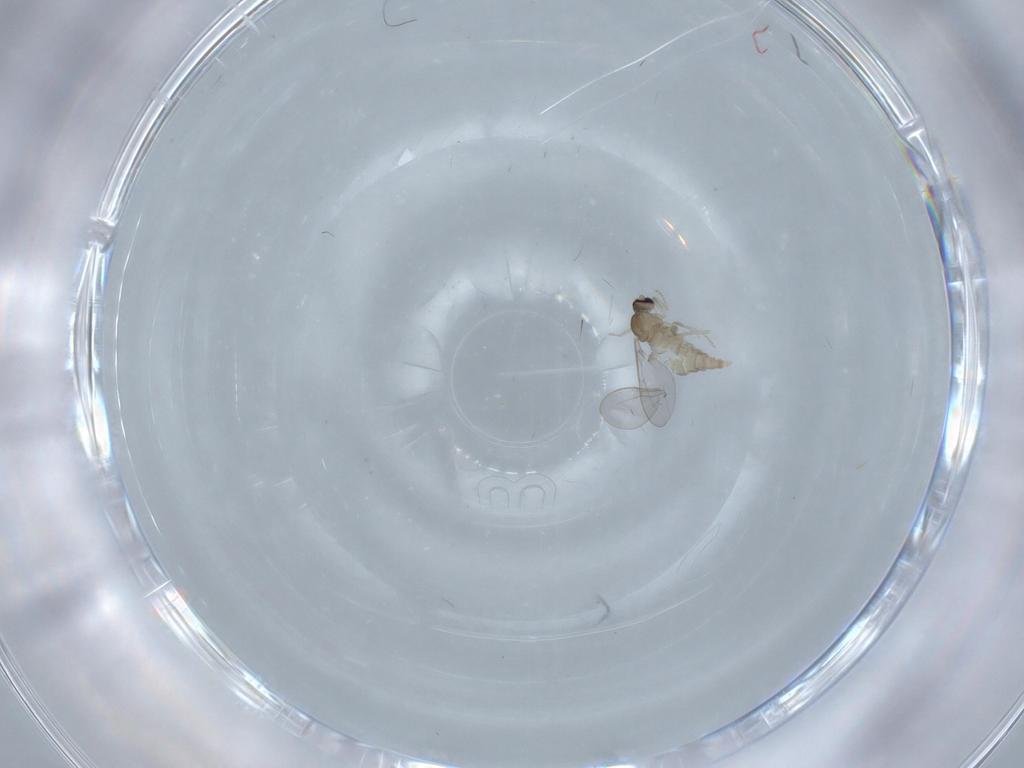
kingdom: Animalia
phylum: Arthropoda
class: Insecta
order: Diptera
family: Cecidomyiidae
